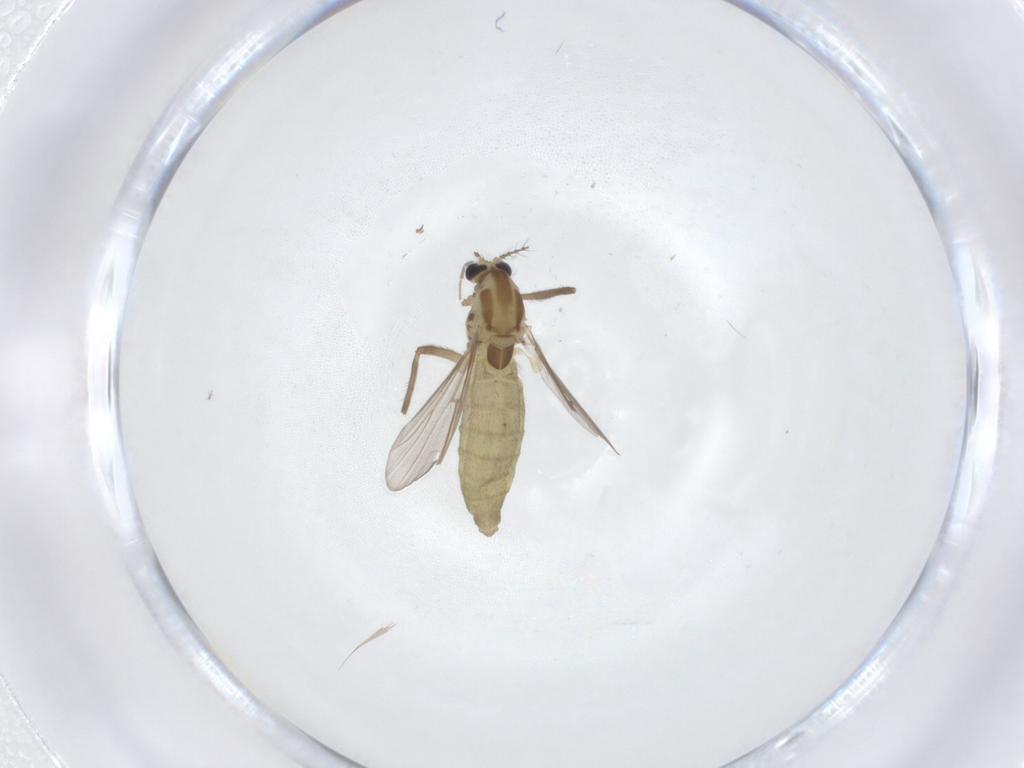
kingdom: Animalia
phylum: Arthropoda
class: Insecta
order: Diptera
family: Chironomidae
